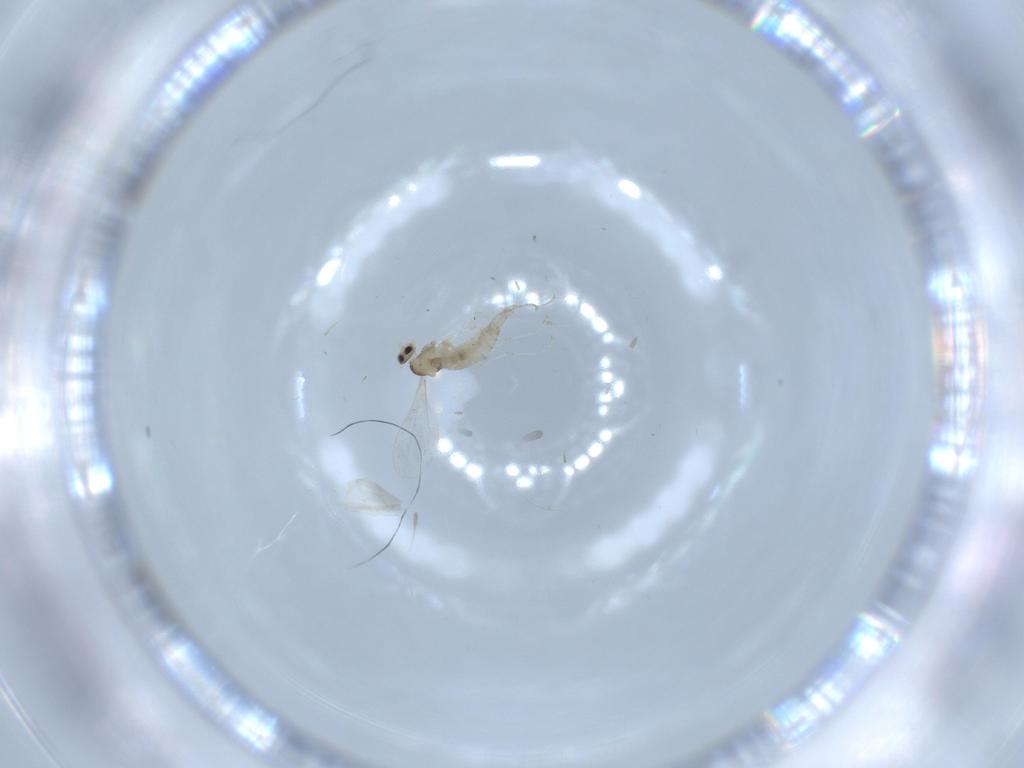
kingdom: Animalia
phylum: Arthropoda
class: Insecta
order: Diptera
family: Cecidomyiidae
